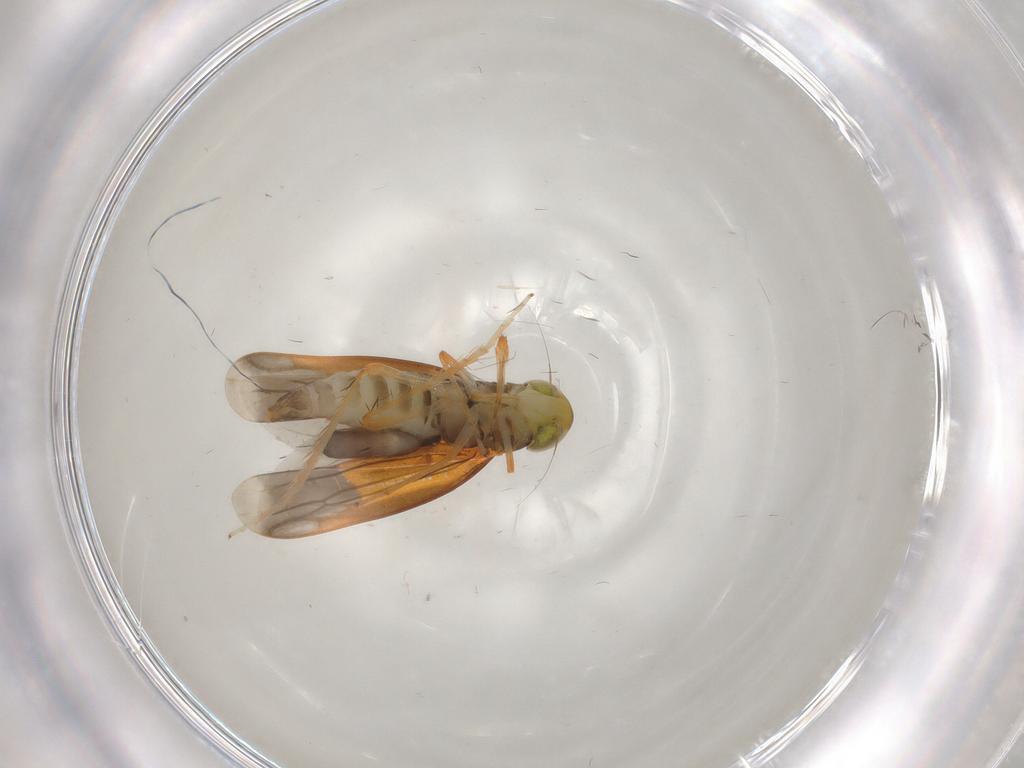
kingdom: Animalia
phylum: Arthropoda
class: Insecta
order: Hemiptera
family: Cicadellidae
